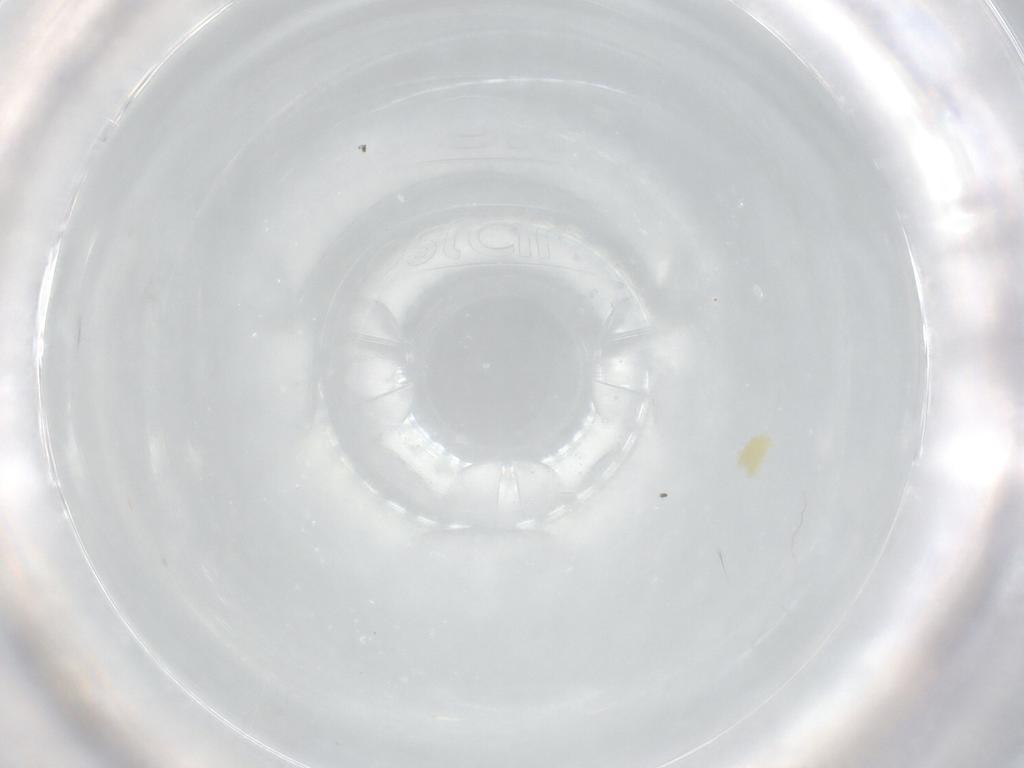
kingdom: Animalia
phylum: Arthropoda
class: Arachnida
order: Trombidiformes
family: Eupodidae
